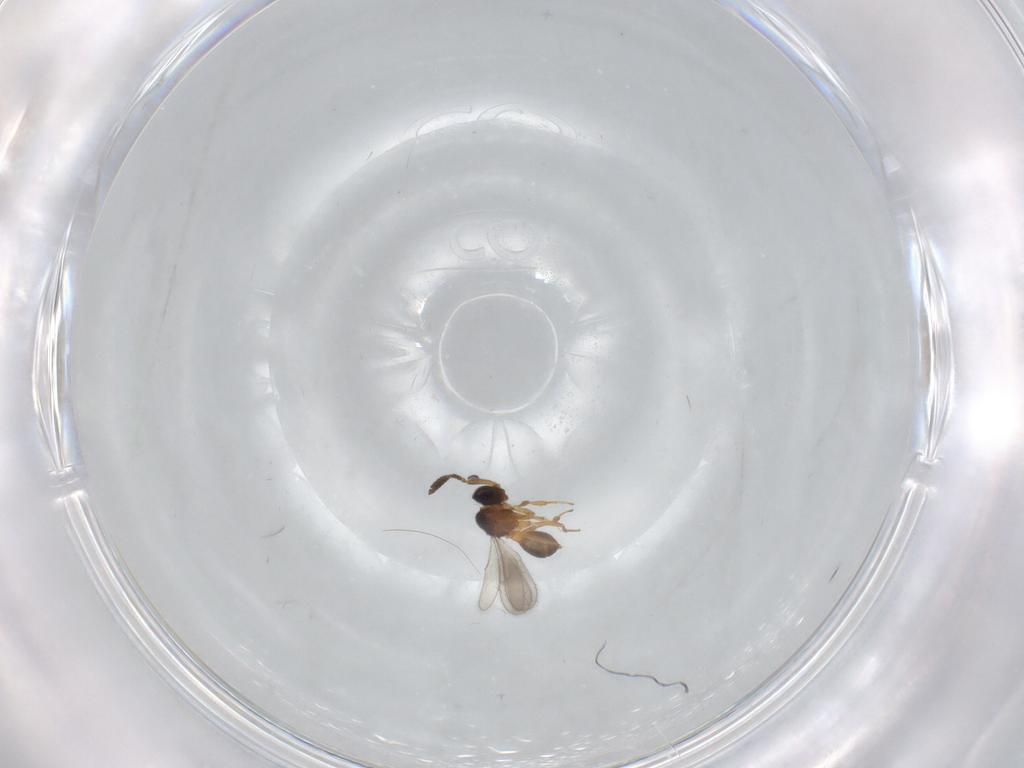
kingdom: Animalia
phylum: Arthropoda
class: Insecta
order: Hymenoptera
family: Scelionidae
